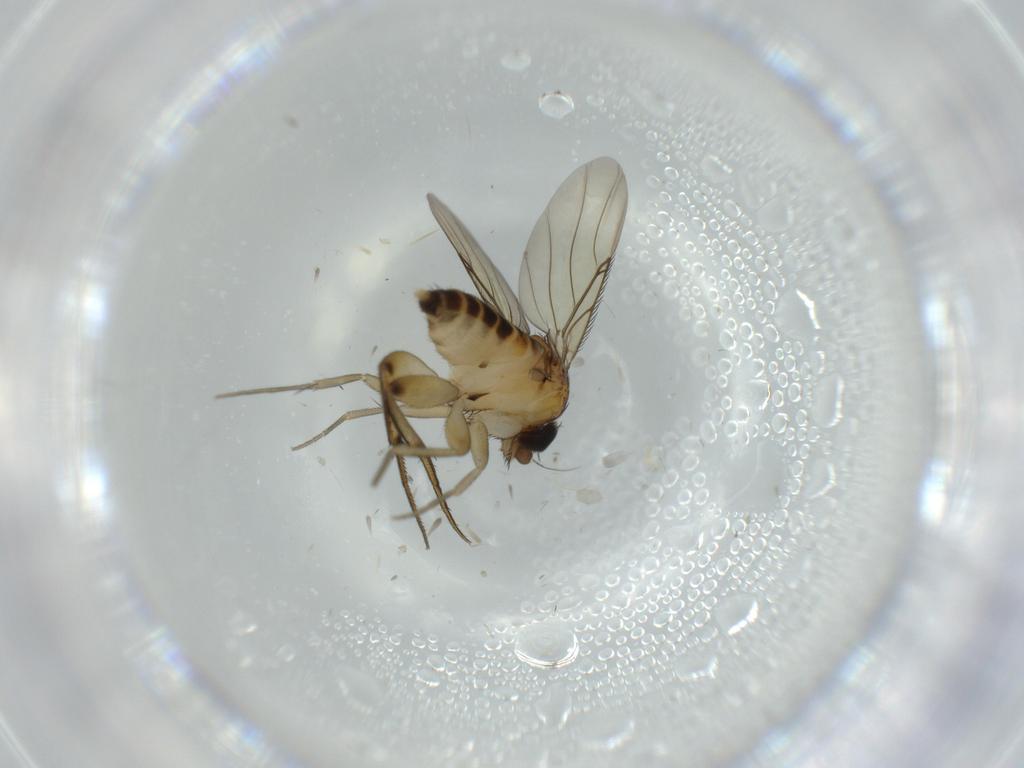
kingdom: Animalia
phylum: Arthropoda
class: Insecta
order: Diptera
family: Phoridae
